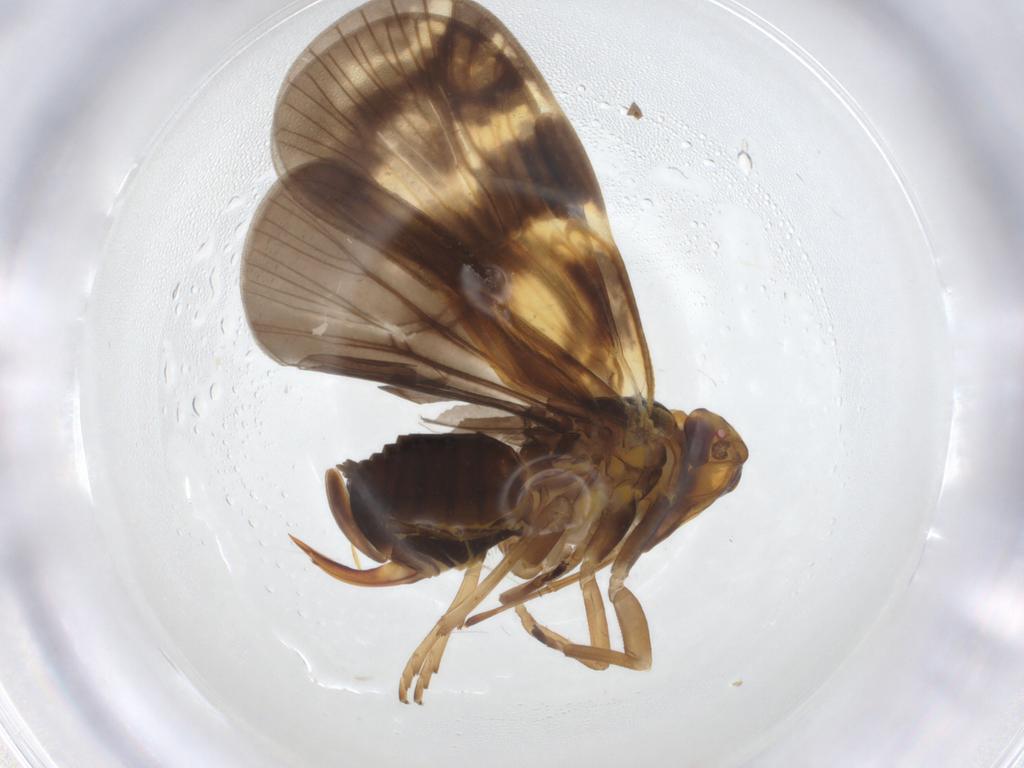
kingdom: Animalia
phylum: Arthropoda
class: Insecta
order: Hemiptera
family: Cixiidae
